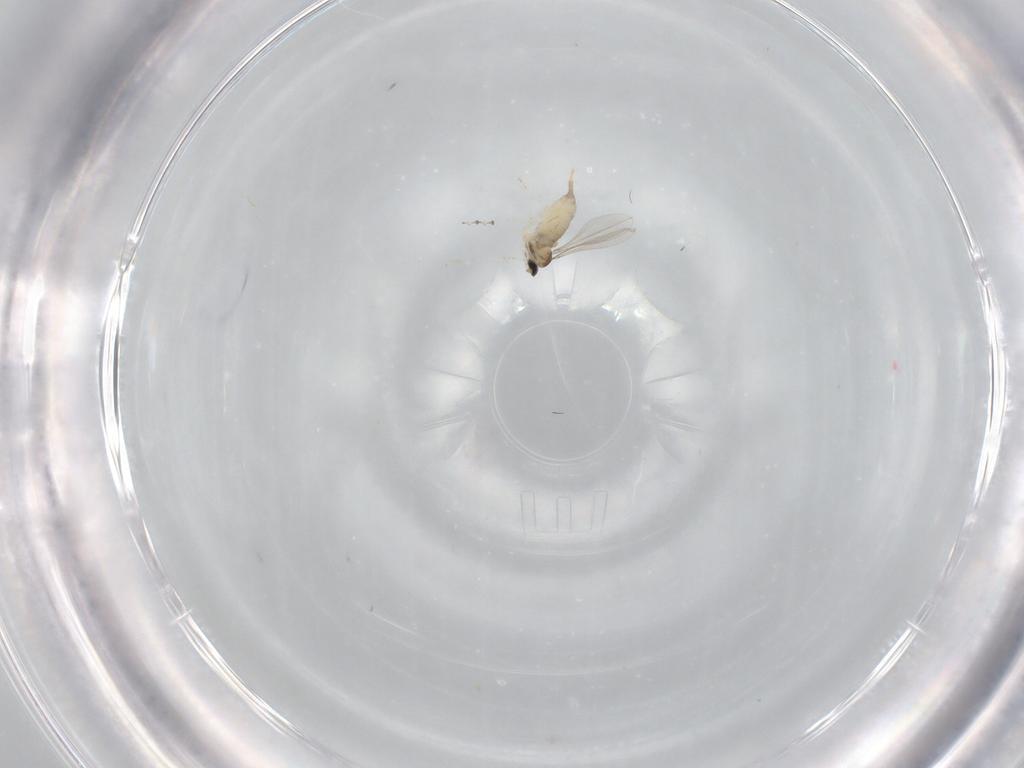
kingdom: Animalia
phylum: Arthropoda
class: Insecta
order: Diptera
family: Cecidomyiidae
